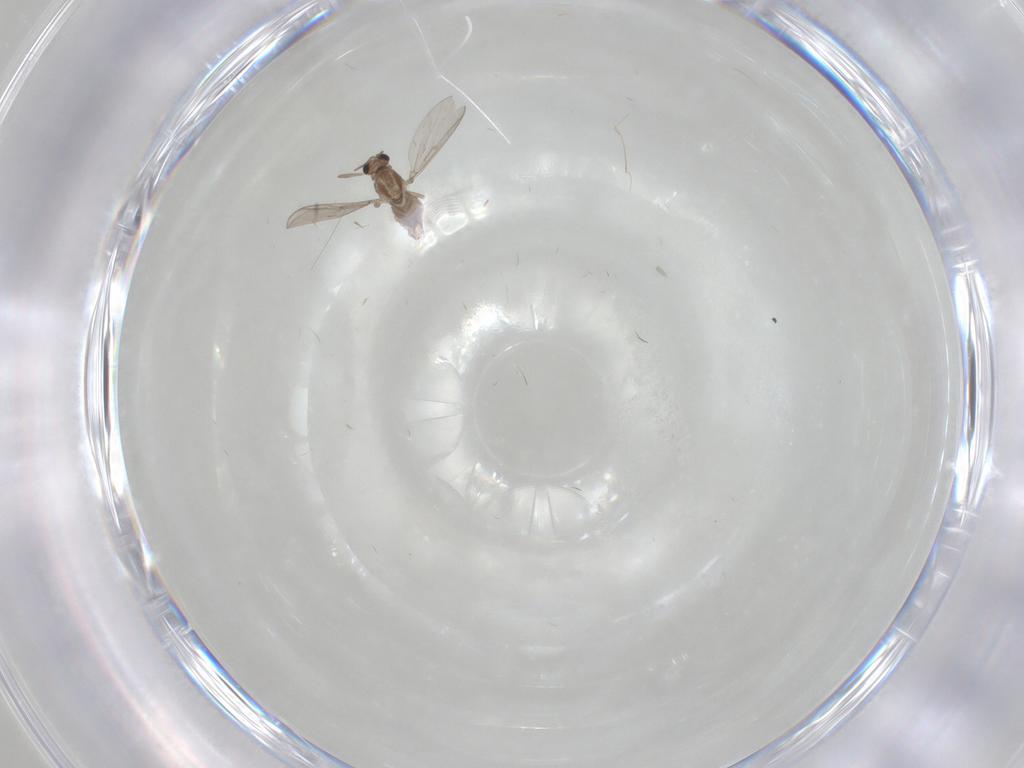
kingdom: Animalia
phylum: Arthropoda
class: Insecta
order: Diptera
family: Chironomidae
